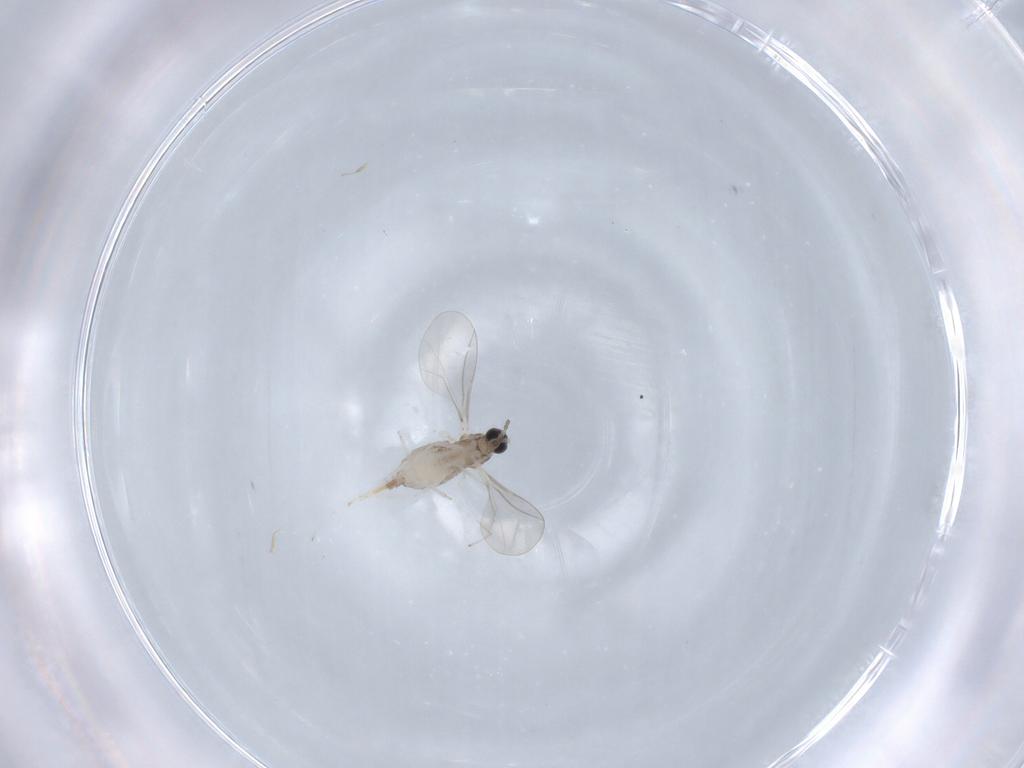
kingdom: Animalia
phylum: Arthropoda
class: Insecta
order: Diptera
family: Cecidomyiidae
